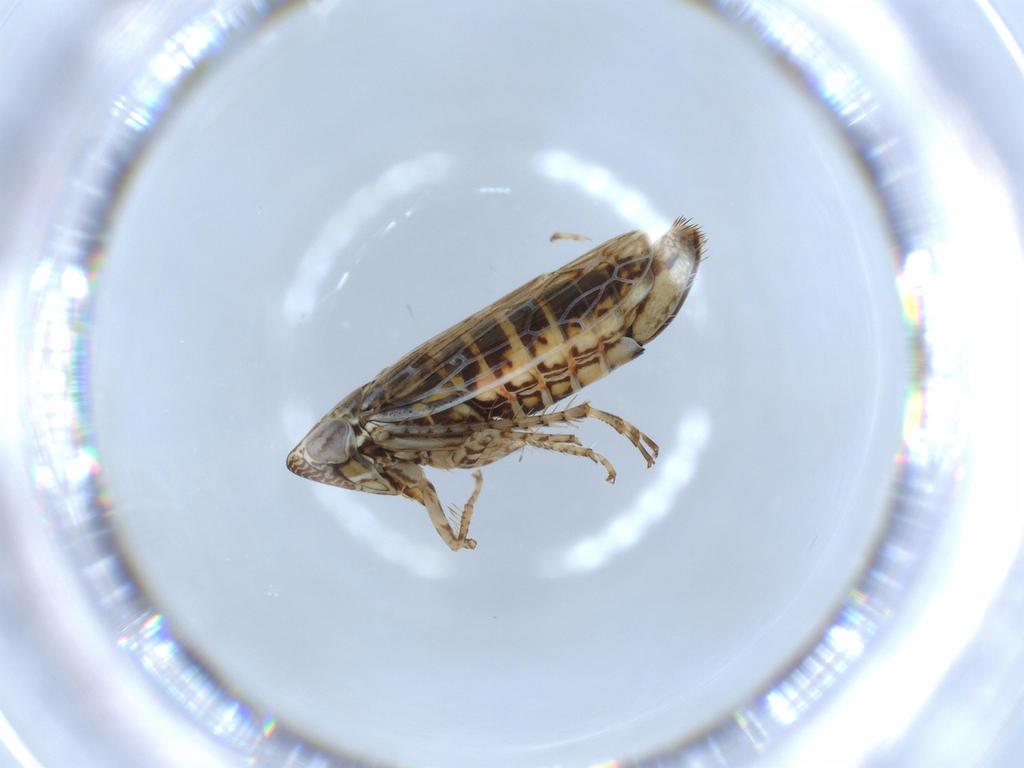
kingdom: Animalia
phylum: Arthropoda
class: Insecta
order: Hemiptera
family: Cicadellidae
